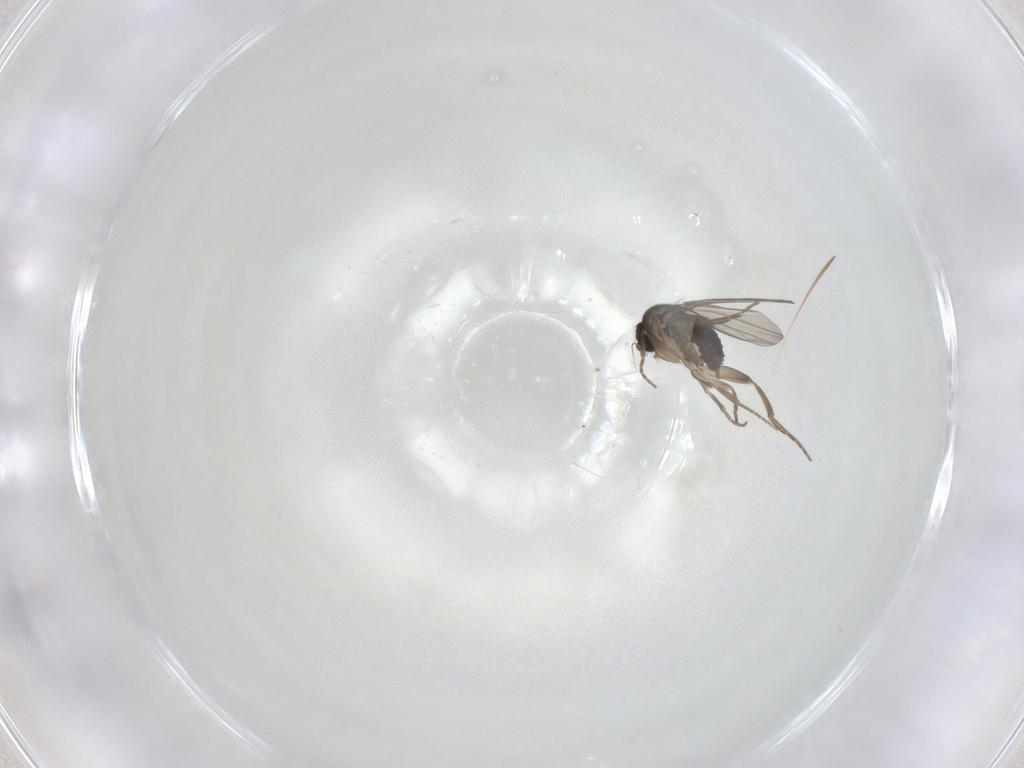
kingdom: Animalia
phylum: Arthropoda
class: Insecta
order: Diptera
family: Phoridae
